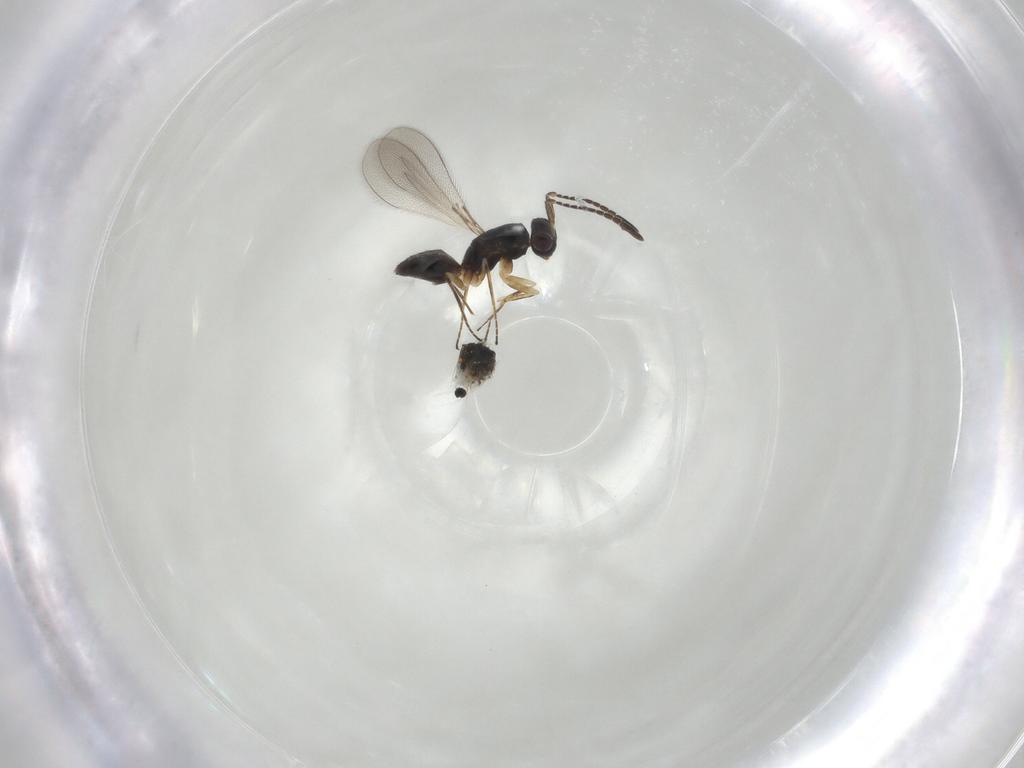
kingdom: Animalia
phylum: Arthropoda
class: Insecta
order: Hymenoptera
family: Mymaridae
